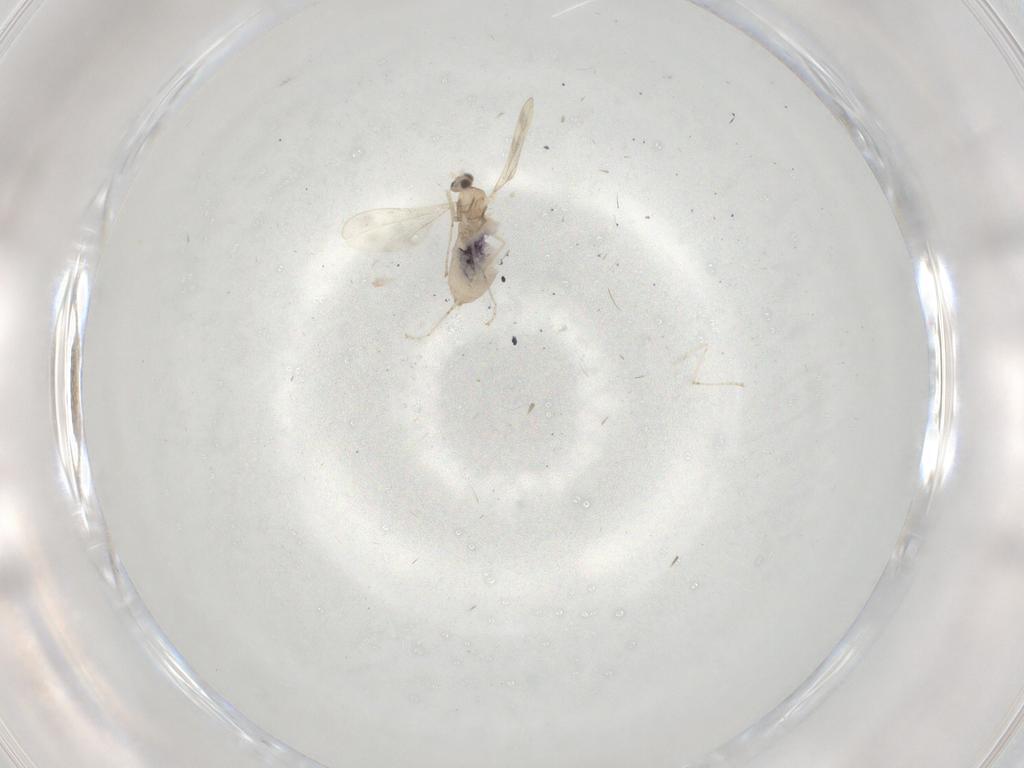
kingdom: Animalia
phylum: Arthropoda
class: Insecta
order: Diptera
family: Cecidomyiidae
